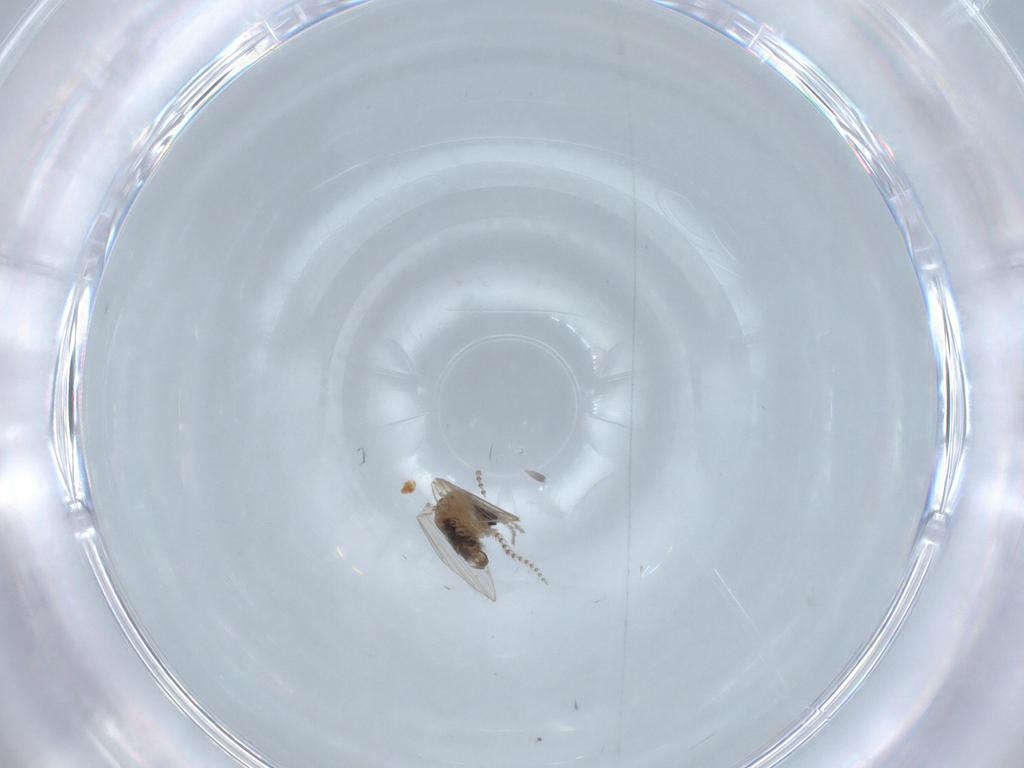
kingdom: Animalia
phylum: Arthropoda
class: Insecta
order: Diptera
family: Psychodidae
